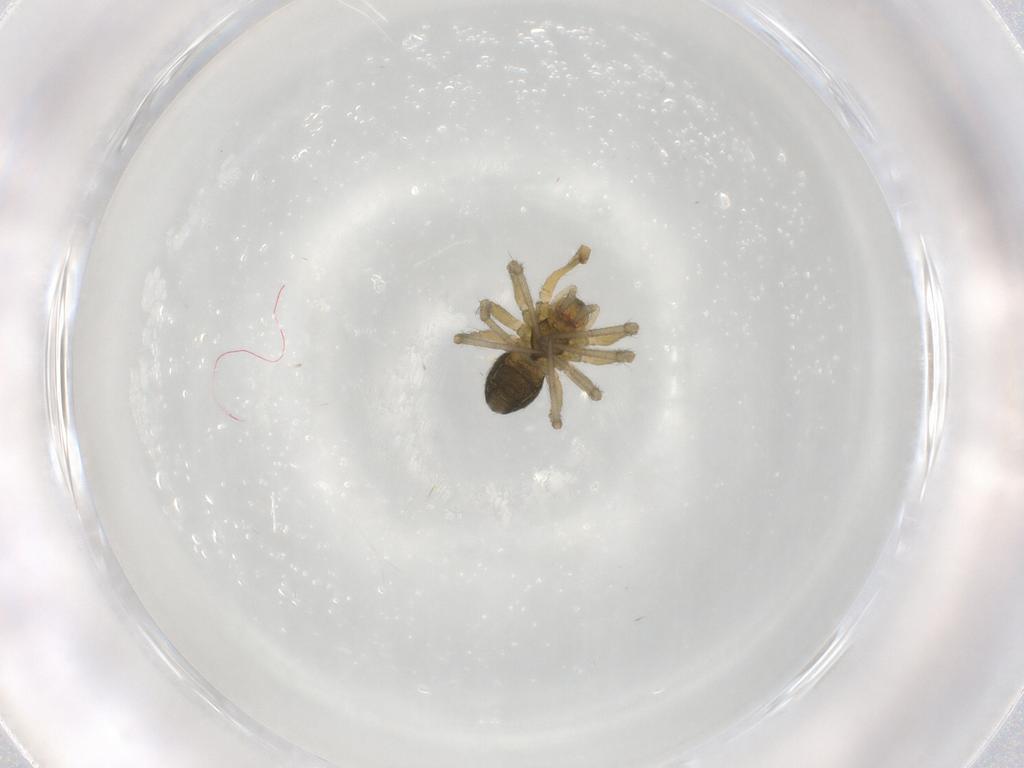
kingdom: Animalia
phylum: Arthropoda
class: Arachnida
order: Araneae
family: Linyphiidae
